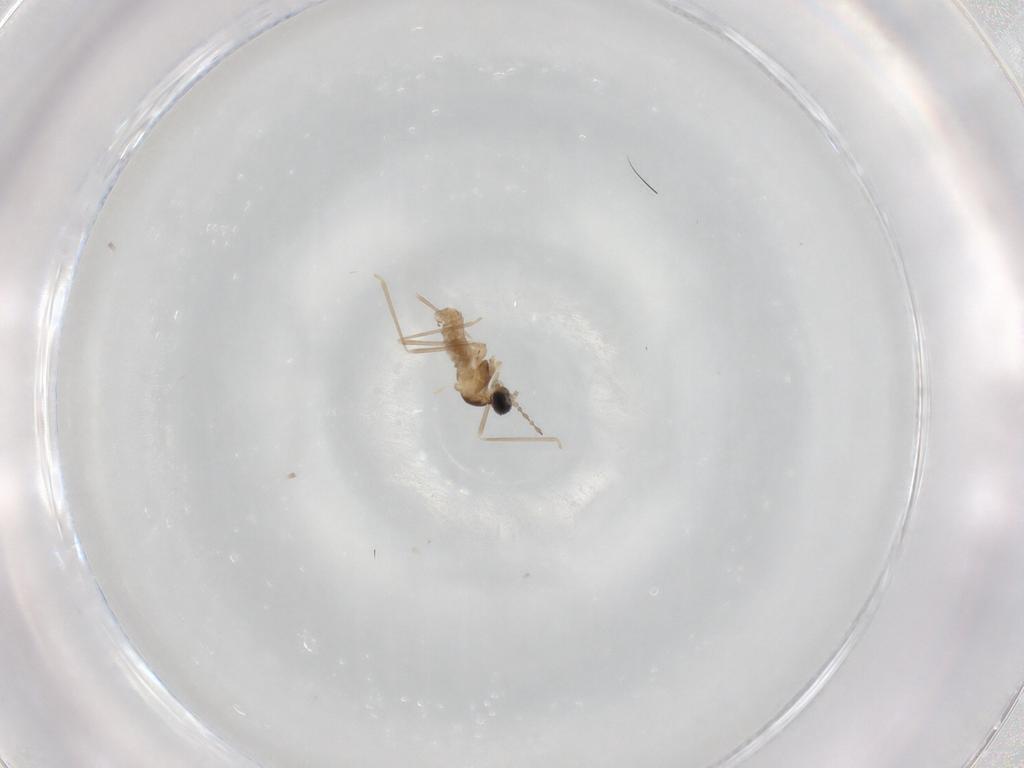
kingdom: Animalia
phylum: Arthropoda
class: Insecta
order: Diptera
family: Cecidomyiidae
